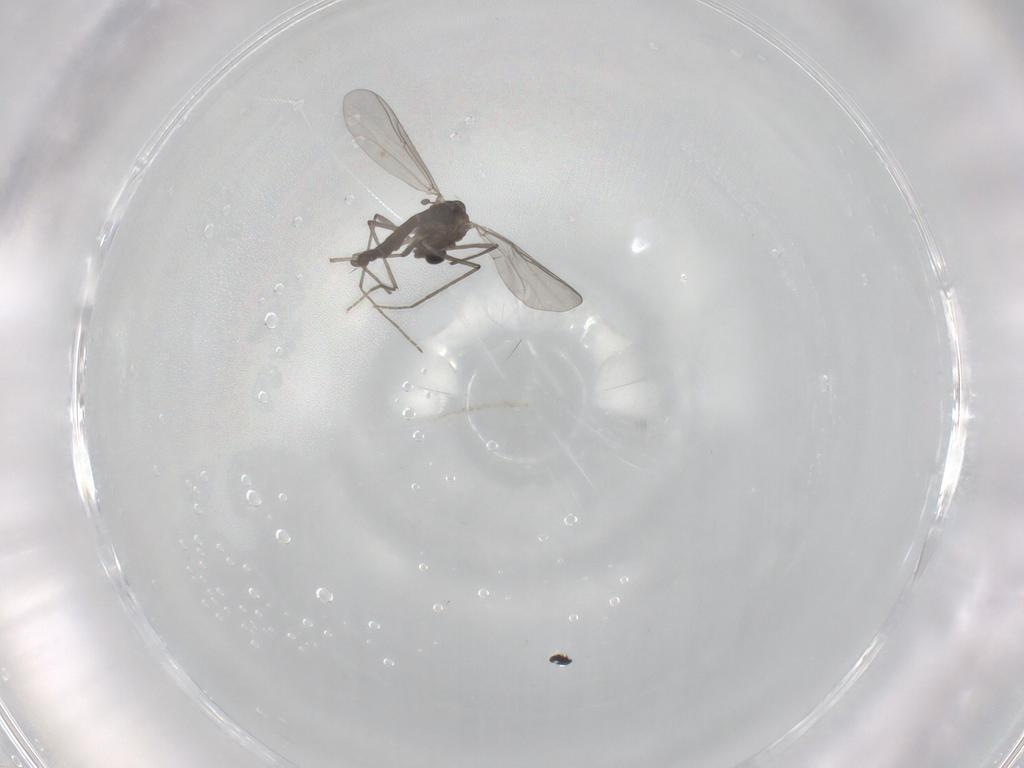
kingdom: Animalia
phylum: Arthropoda
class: Insecta
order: Diptera
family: Chironomidae
